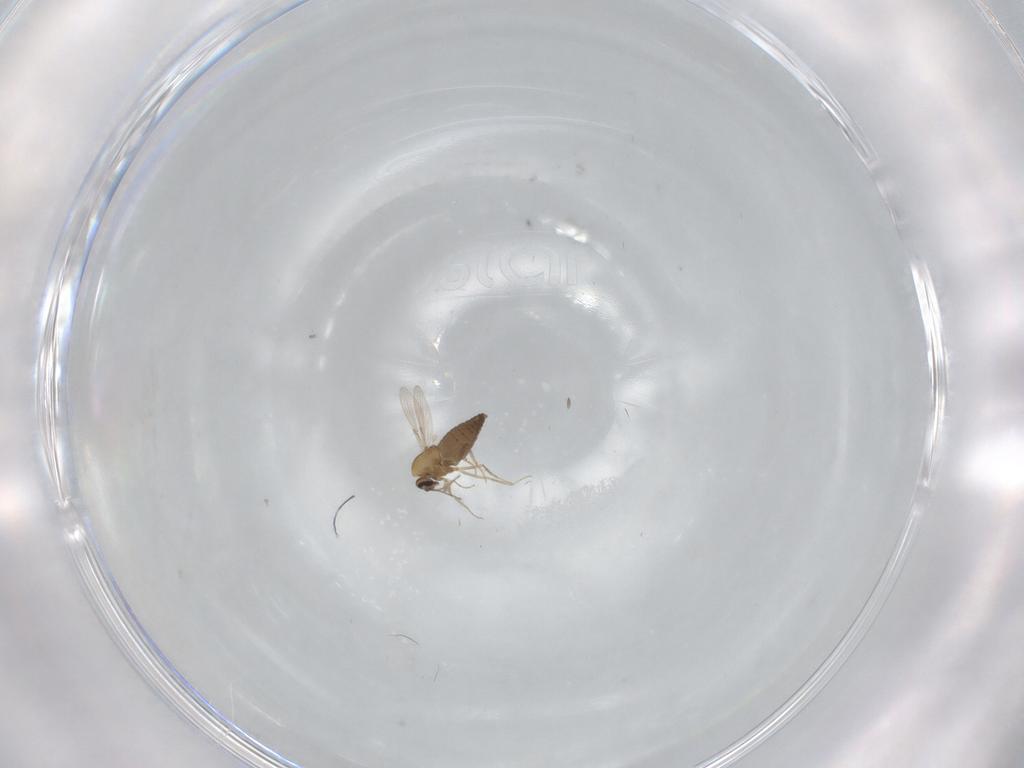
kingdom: Animalia
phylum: Arthropoda
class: Insecta
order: Diptera
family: Ceratopogonidae
